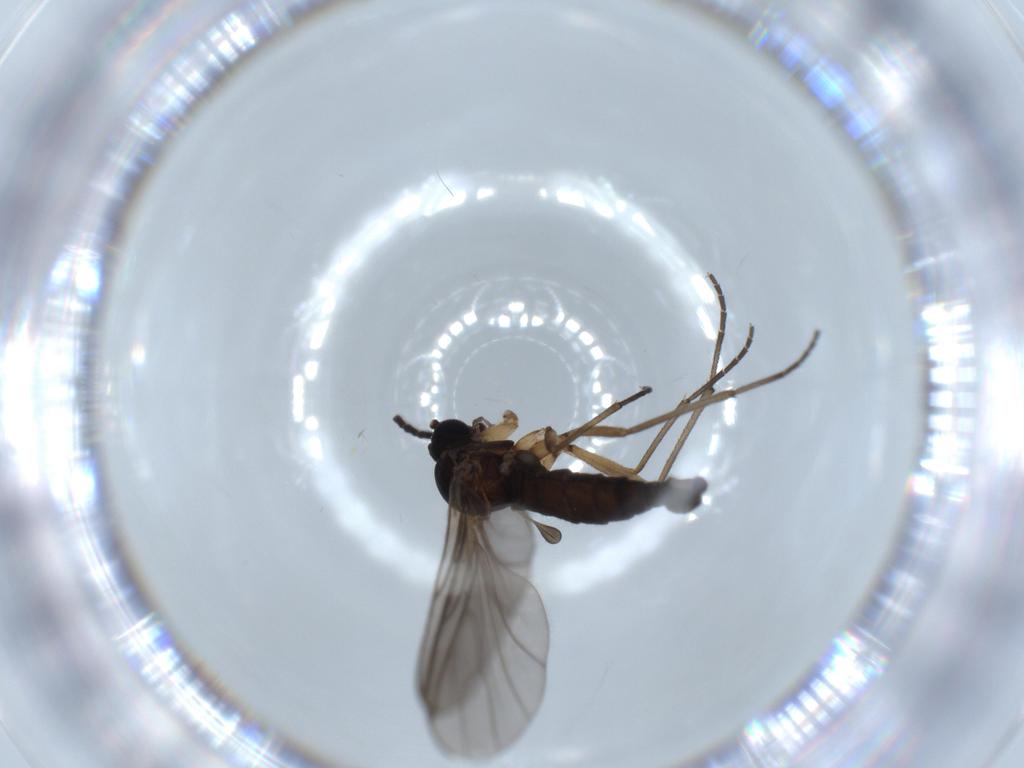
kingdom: Animalia
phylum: Arthropoda
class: Insecta
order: Diptera
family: Sciaridae
